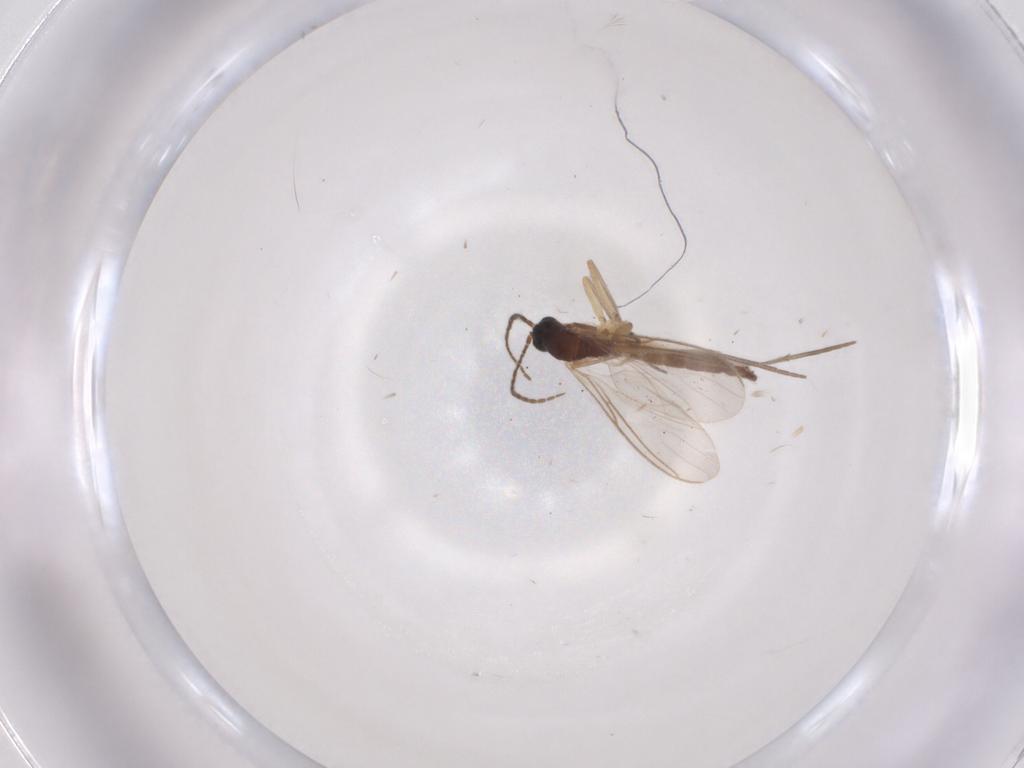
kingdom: Animalia
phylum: Arthropoda
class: Insecta
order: Diptera
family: Sciaridae
